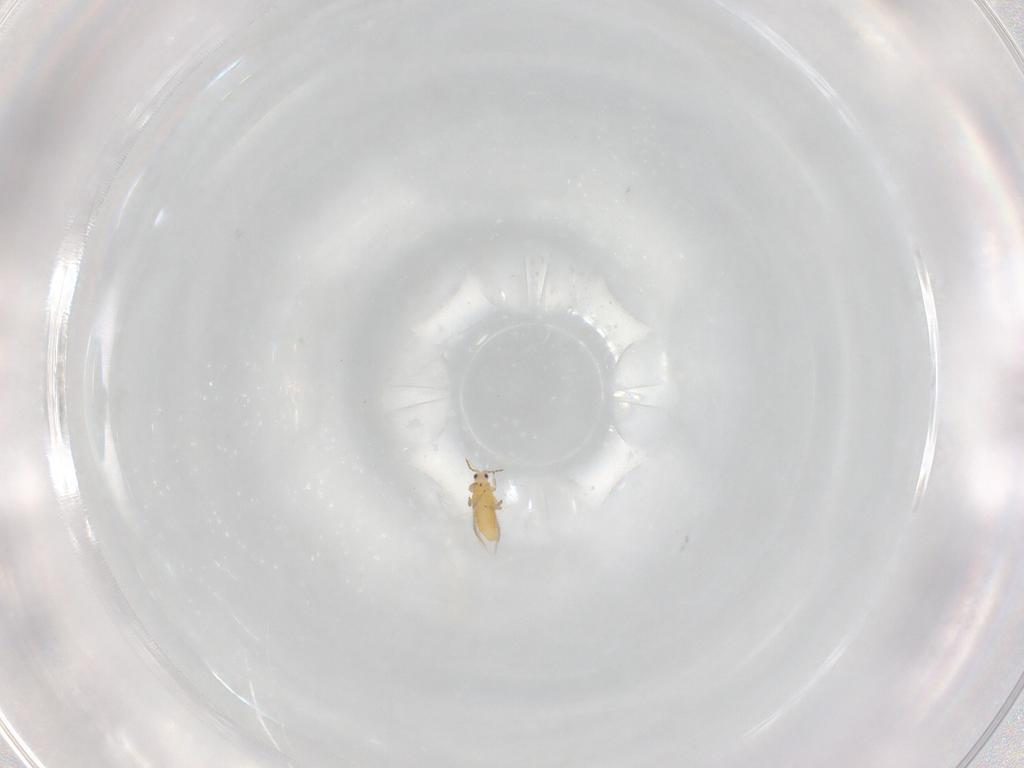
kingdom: Animalia
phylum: Arthropoda
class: Insecta
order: Thysanoptera
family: Thripidae
